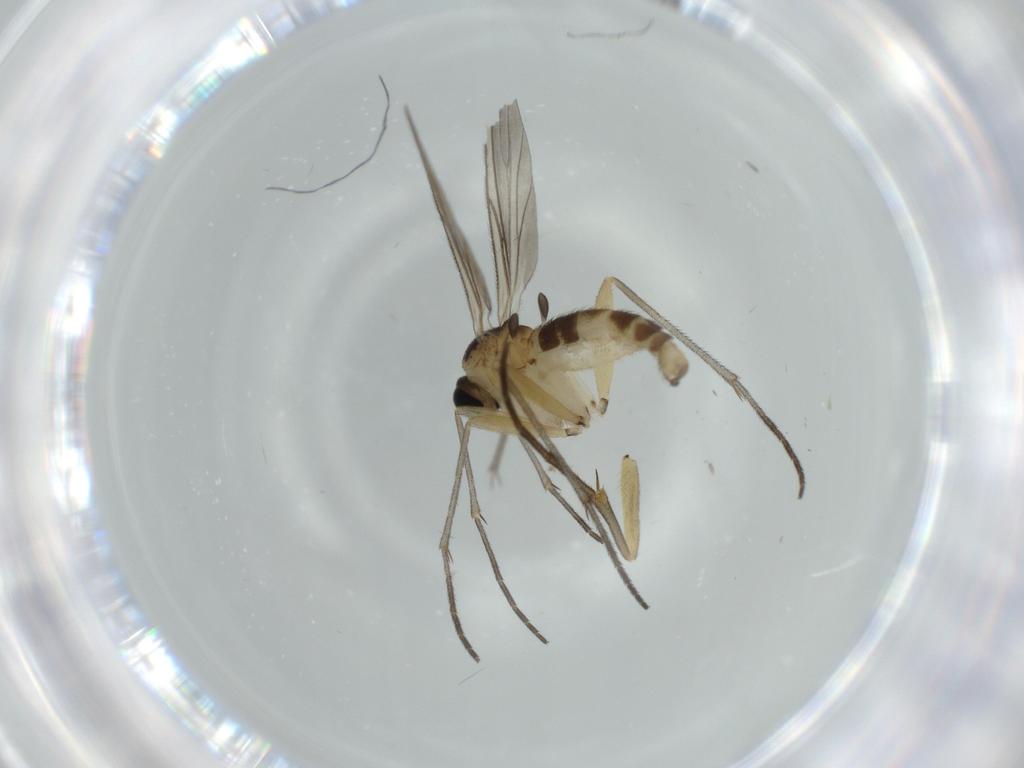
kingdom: Animalia
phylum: Arthropoda
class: Insecta
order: Diptera
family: Sciaridae
